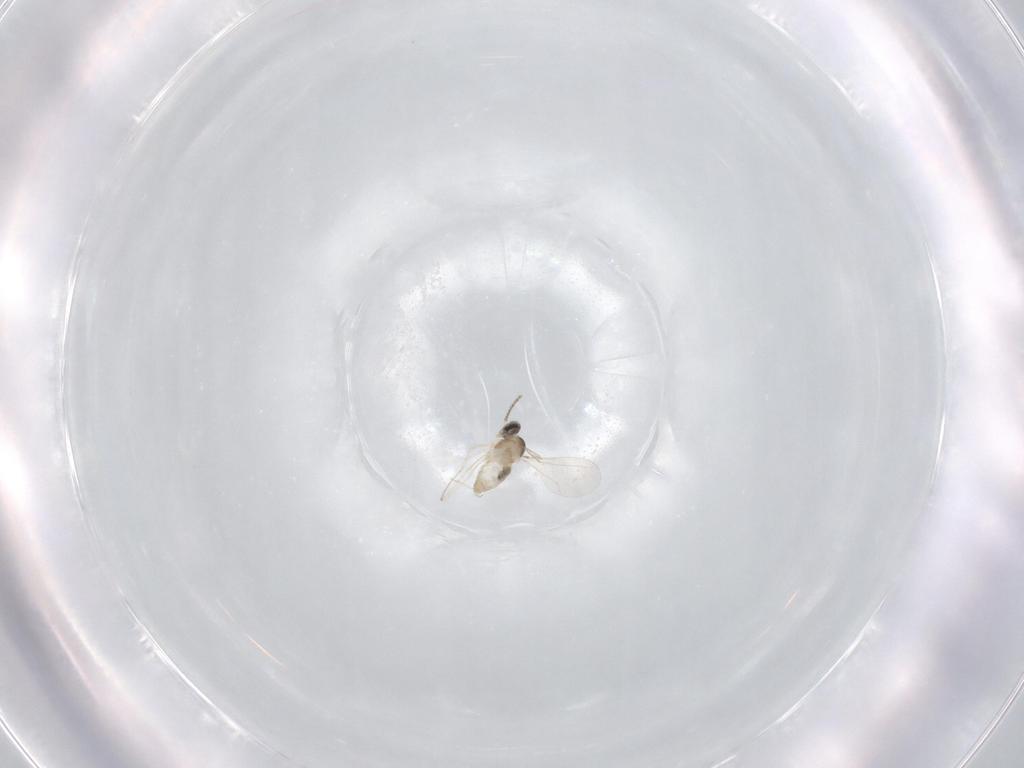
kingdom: Animalia
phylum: Arthropoda
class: Insecta
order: Diptera
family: Cecidomyiidae
